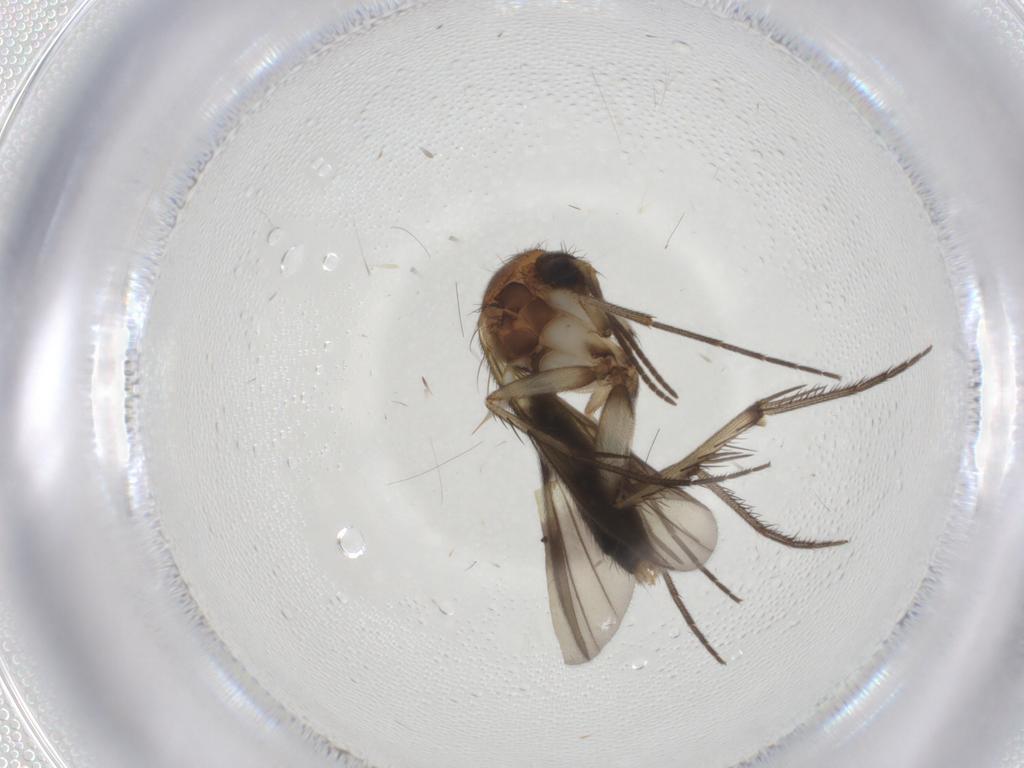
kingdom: Animalia
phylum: Arthropoda
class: Insecta
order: Diptera
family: Mycetophilidae
